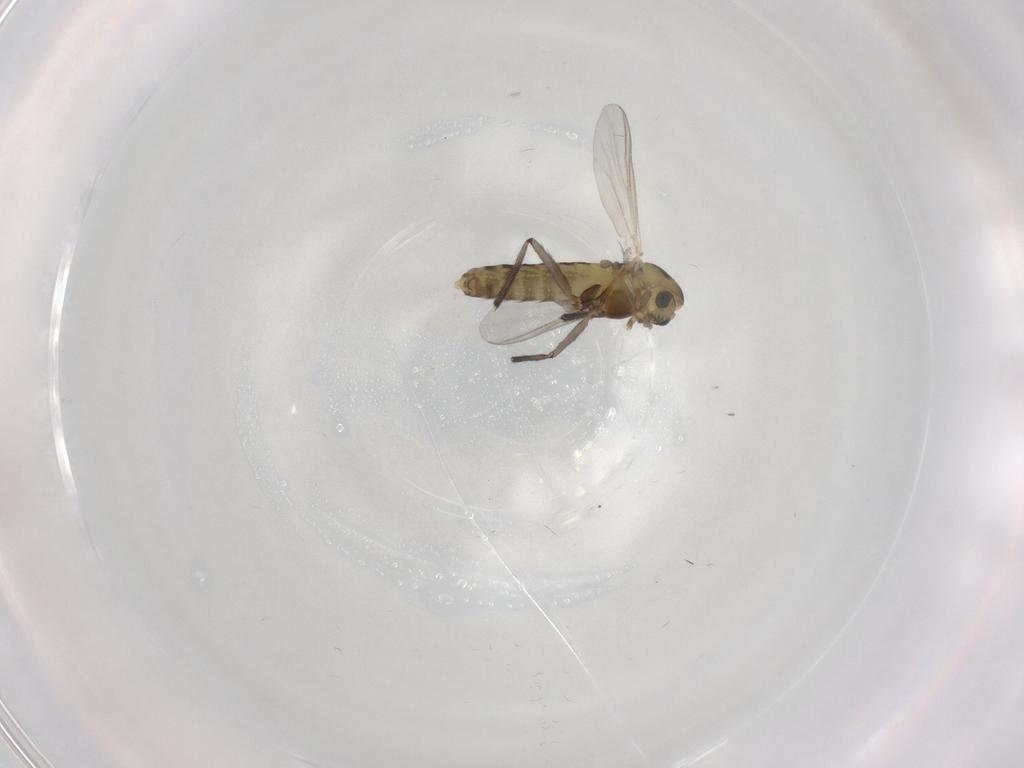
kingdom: Animalia
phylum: Arthropoda
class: Insecta
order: Diptera
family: Chironomidae
